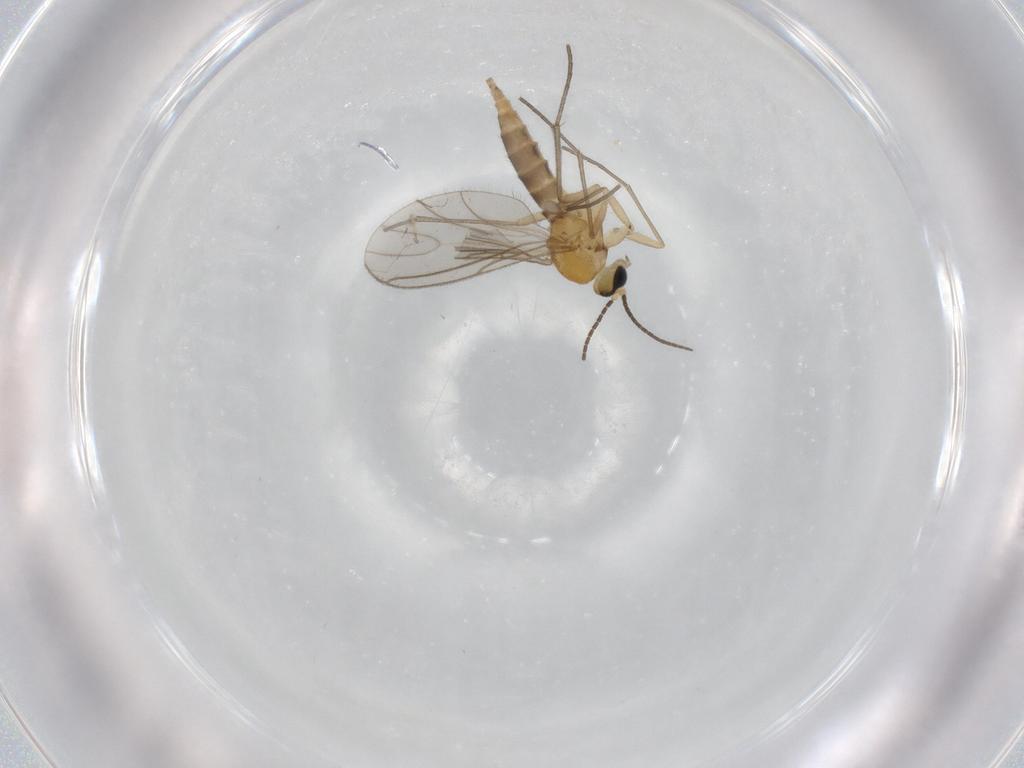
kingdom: Animalia
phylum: Arthropoda
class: Insecta
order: Diptera
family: Sciaridae
